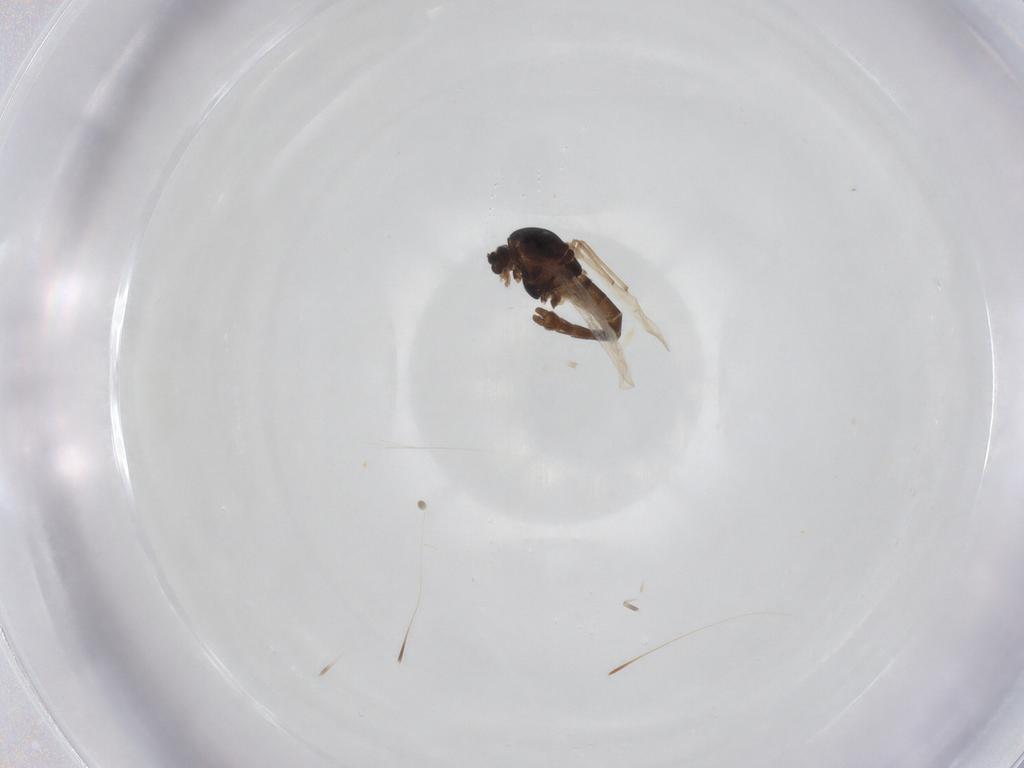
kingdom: Animalia
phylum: Arthropoda
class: Insecta
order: Diptera
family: Chironomidae
